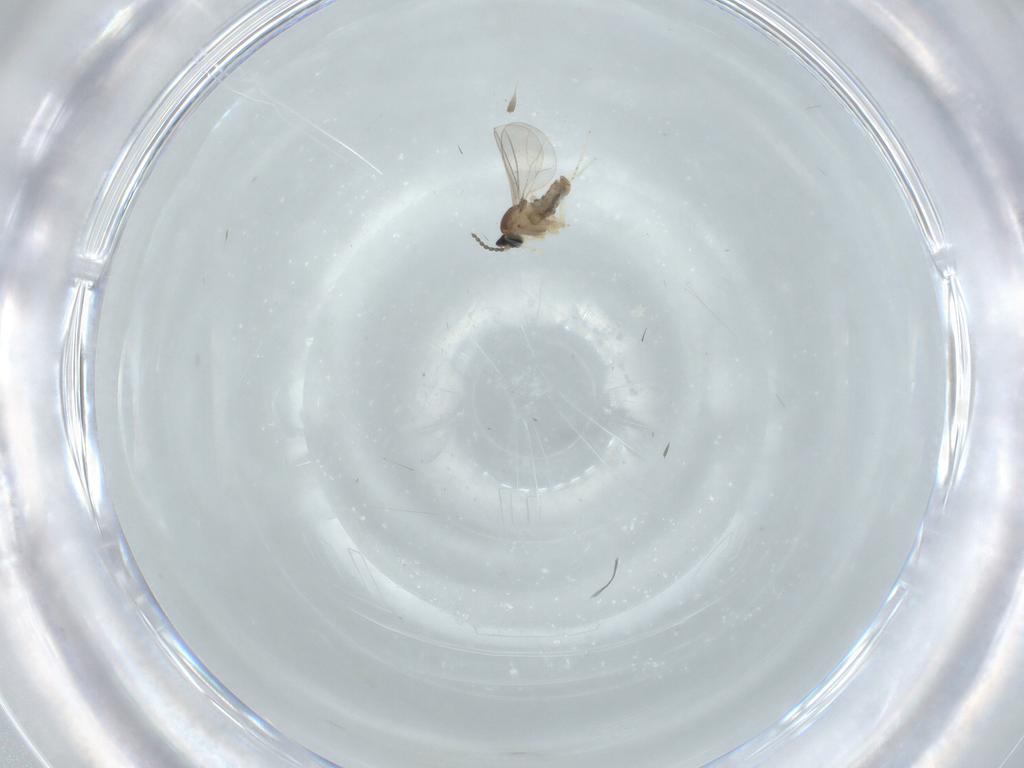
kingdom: Animalia
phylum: Arthropoda
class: Insecta
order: Diptera
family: Cecidomyiidae
